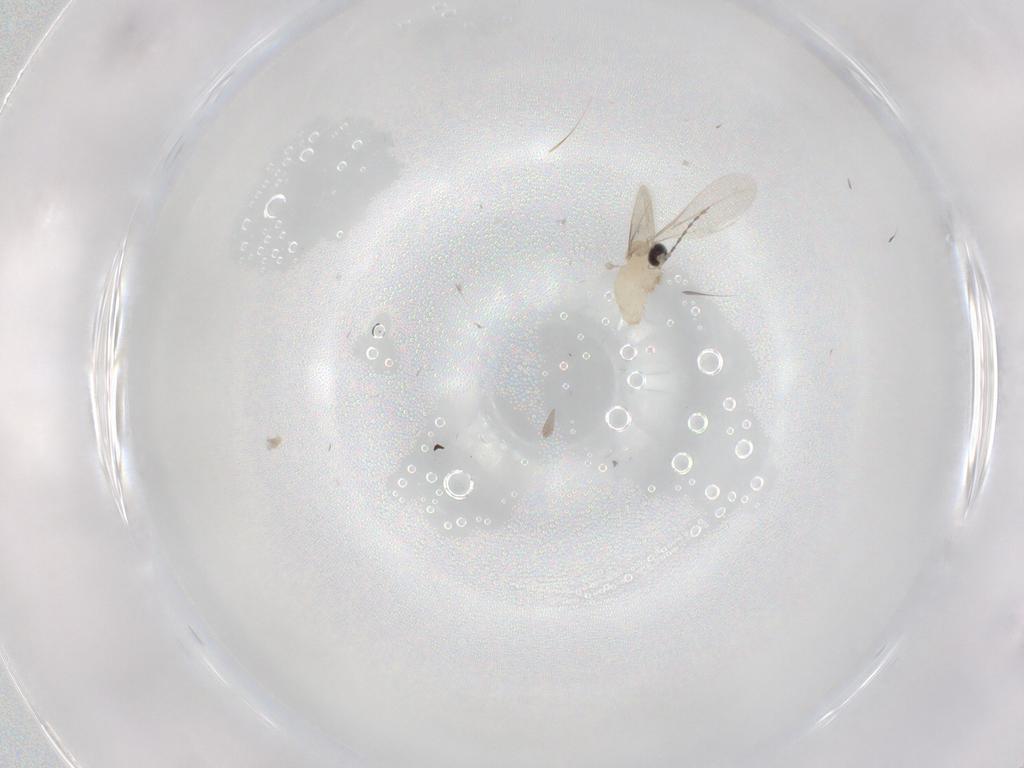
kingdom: Animalia
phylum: Arthropoda
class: Insecta
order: Diptera
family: Cecidomyiidae
